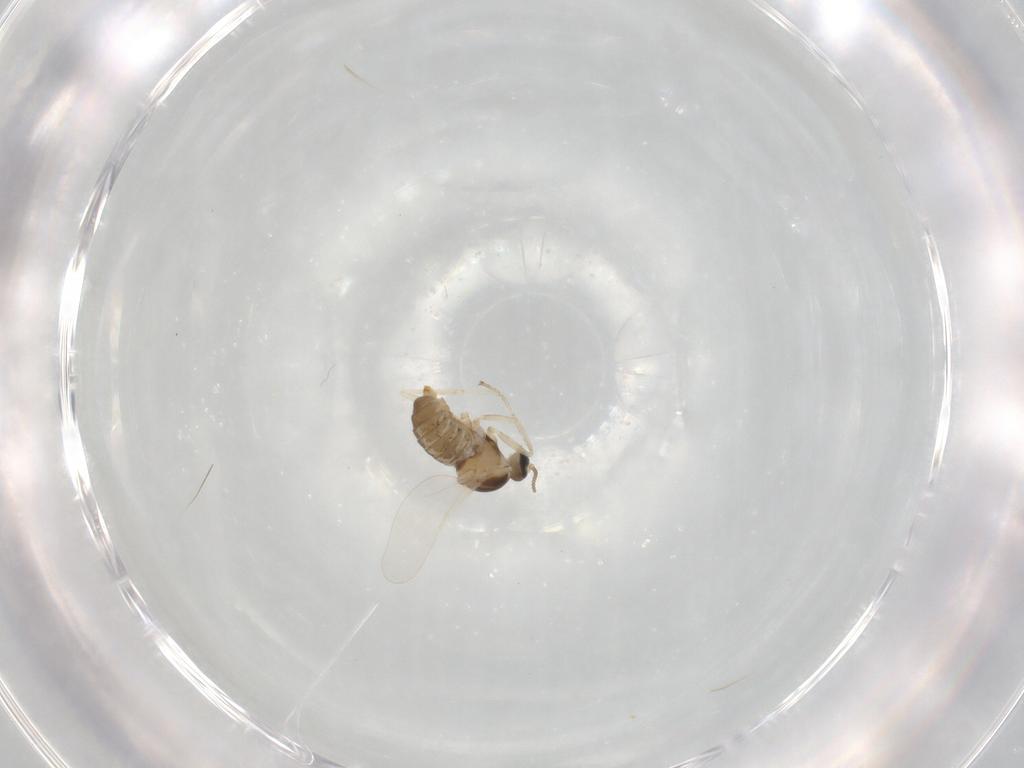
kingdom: Animalia
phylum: Arthropoda
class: Insecta
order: Diptera
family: Cecidomyiidae
